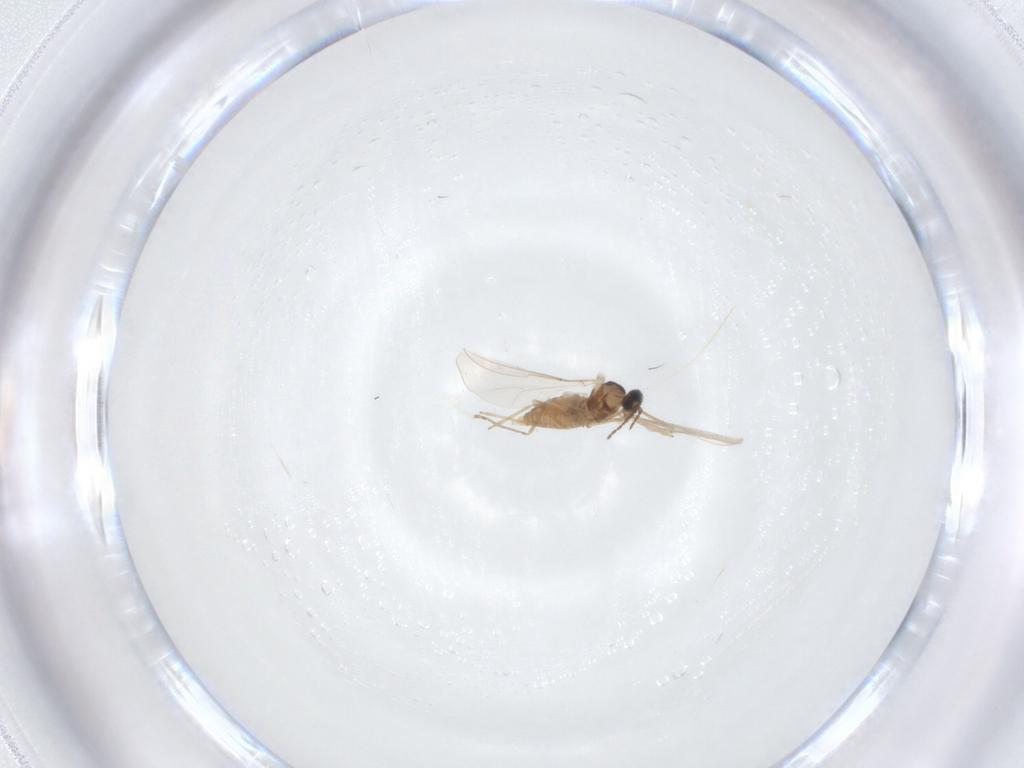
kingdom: Animalia
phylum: Arthropoda
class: Insecta
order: Diptera
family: Cecidomyiidae
